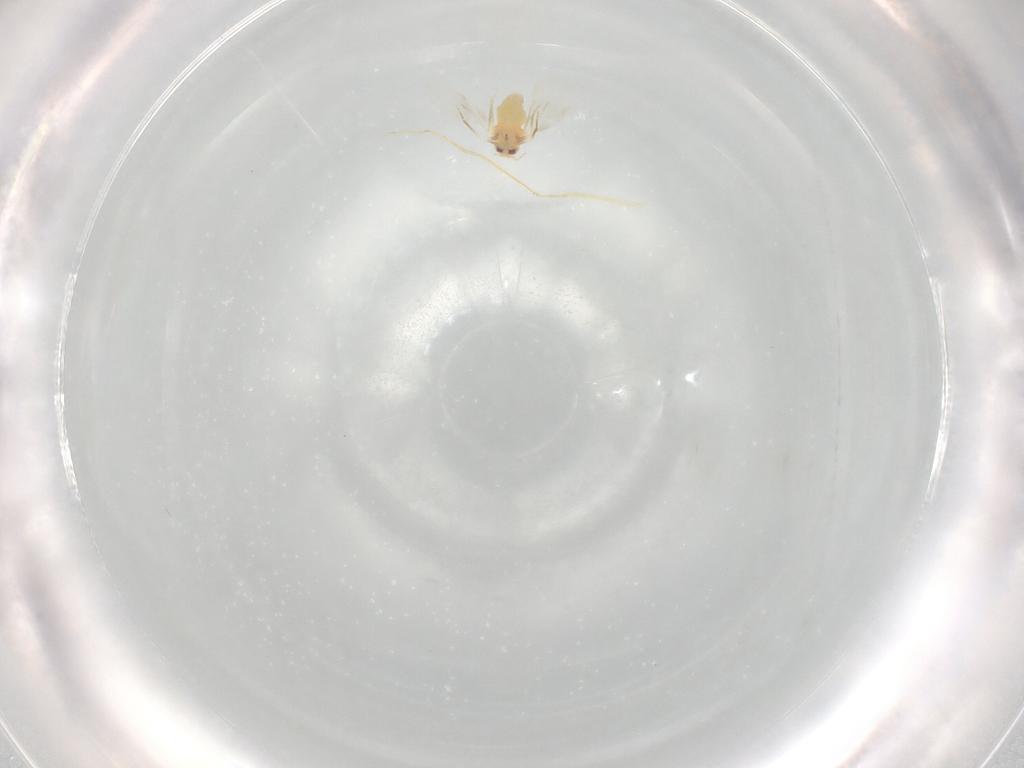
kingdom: Animalia
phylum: Arthropoda
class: Insecta
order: Hemiptera
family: Aleyrodidae
